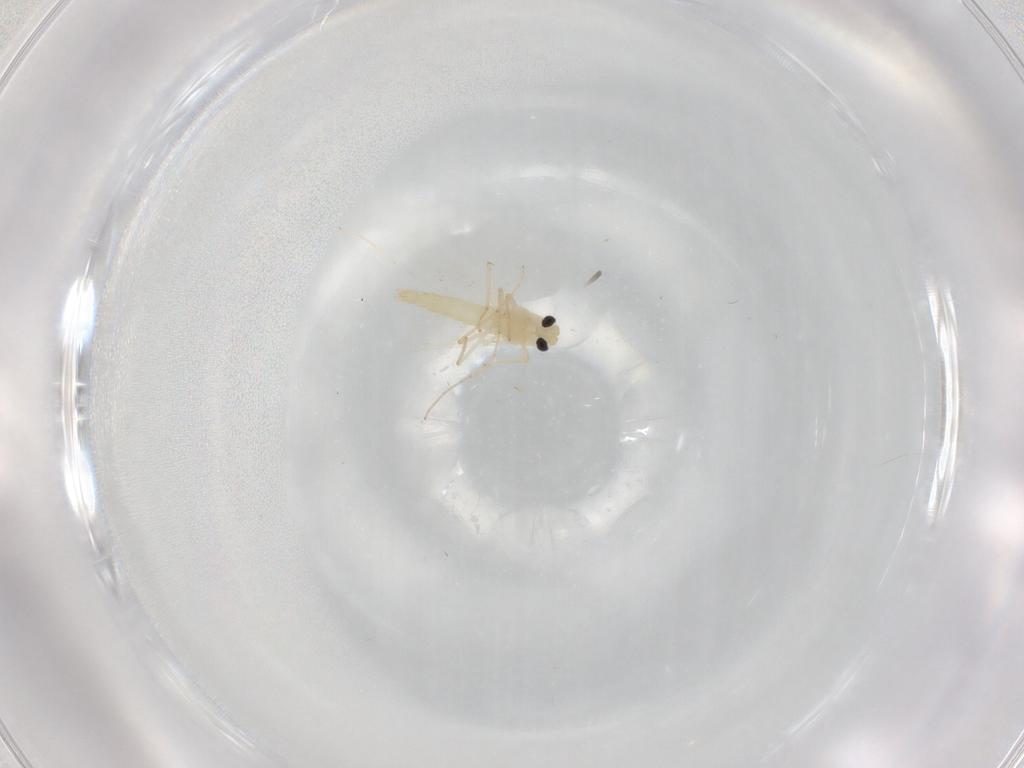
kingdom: Animalia
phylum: Arthropoda
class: Insecta
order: Diptera
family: Chironomidae
